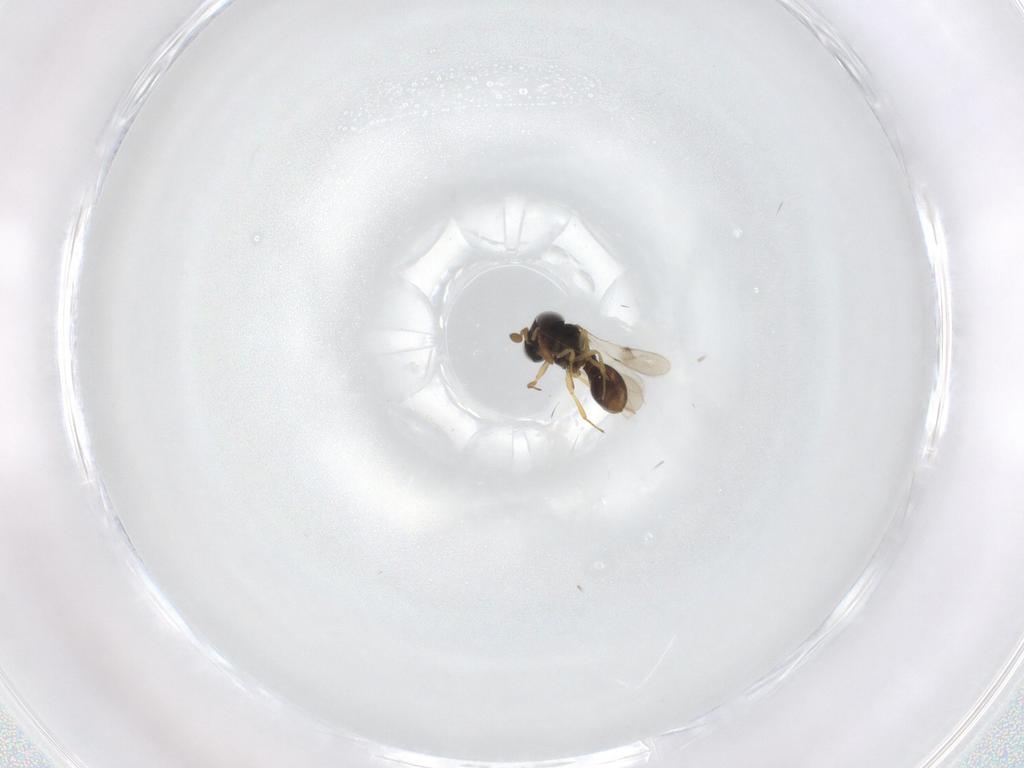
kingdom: Animalia
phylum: Arthropoda
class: Insecta
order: Hymenoptera
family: Scelionidae
